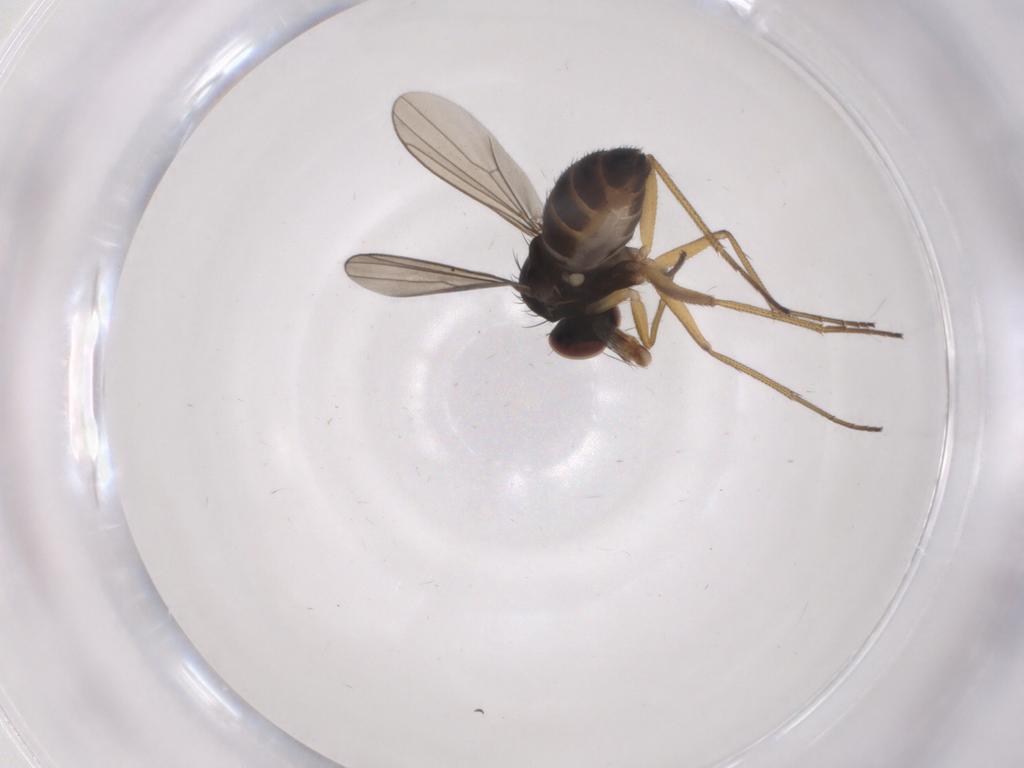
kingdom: Animalia
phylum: Arthropoda
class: Insecta
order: Diptera
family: Dolichopodidae
